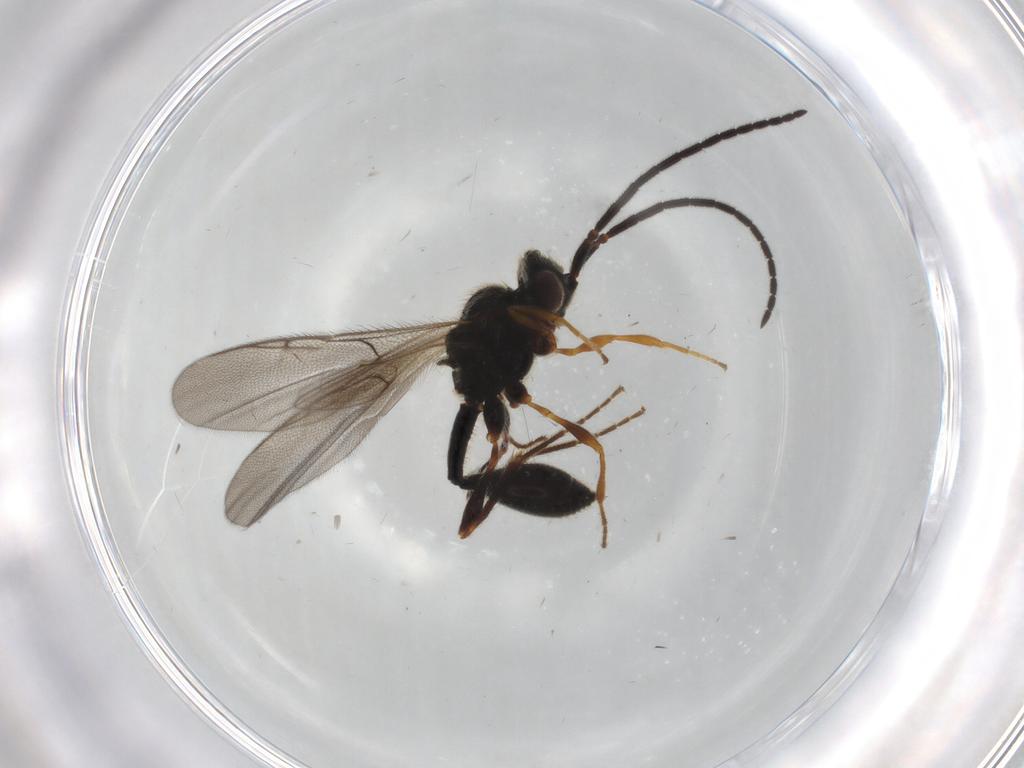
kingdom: Animalia
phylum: Arthropoda
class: Insecta
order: Hymenoptera
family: Diapriidae
